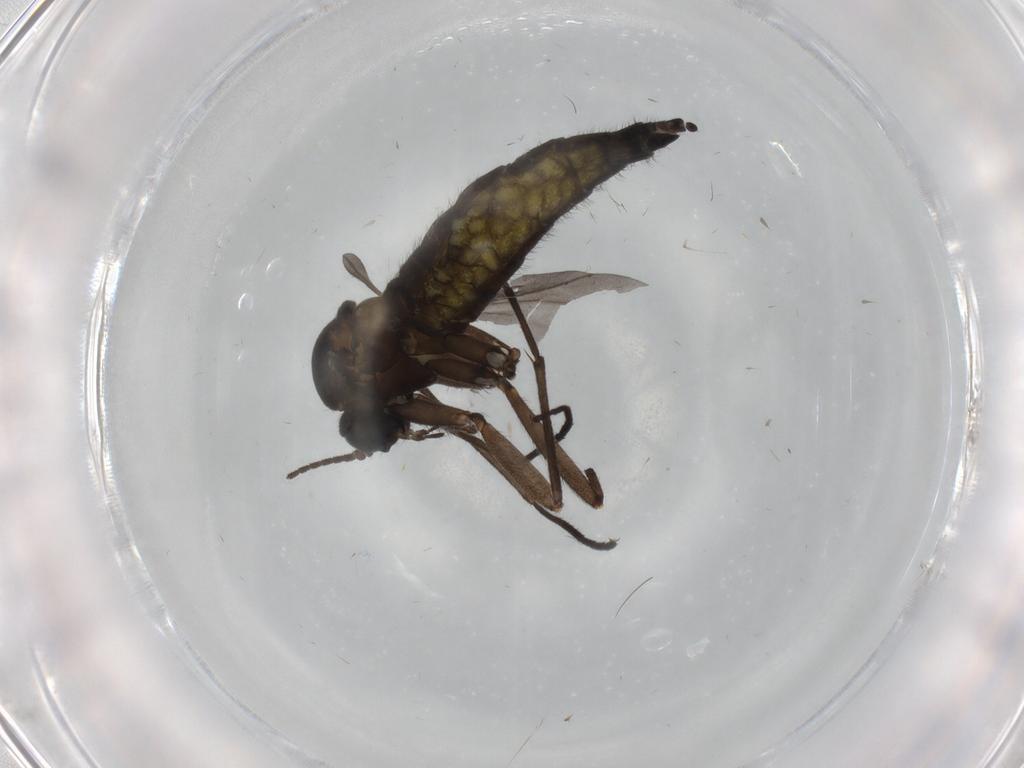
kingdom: Animalia
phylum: Arthropoda
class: Insecta
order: Diptera
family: Sciaridae
